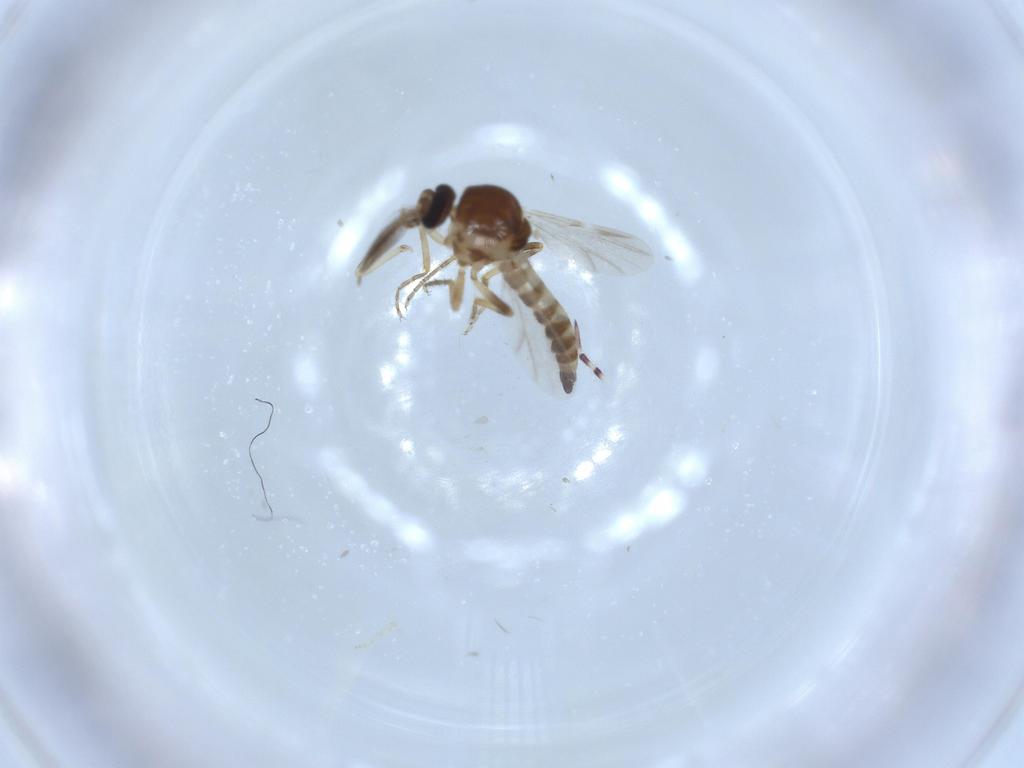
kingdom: Animalia
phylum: Arthropoda
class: Insecta
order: Diptera
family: Ceratopogonidae
